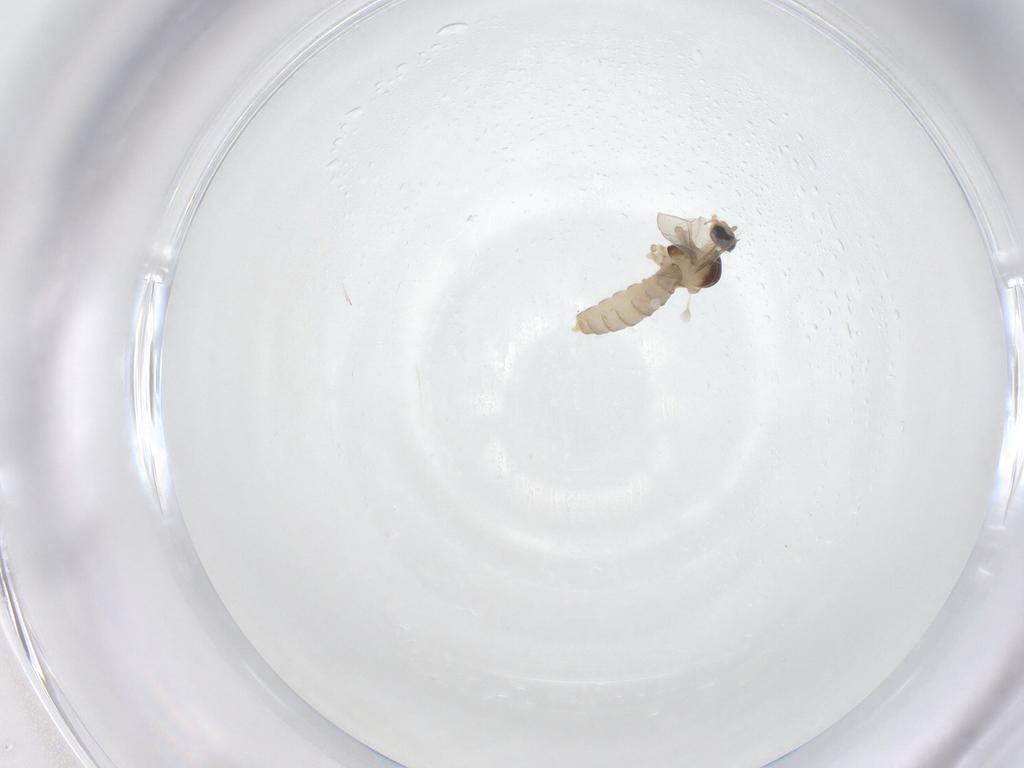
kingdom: Animalia
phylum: Arthropoda
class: Insecta
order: Diptera
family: Cecidomyiidae
